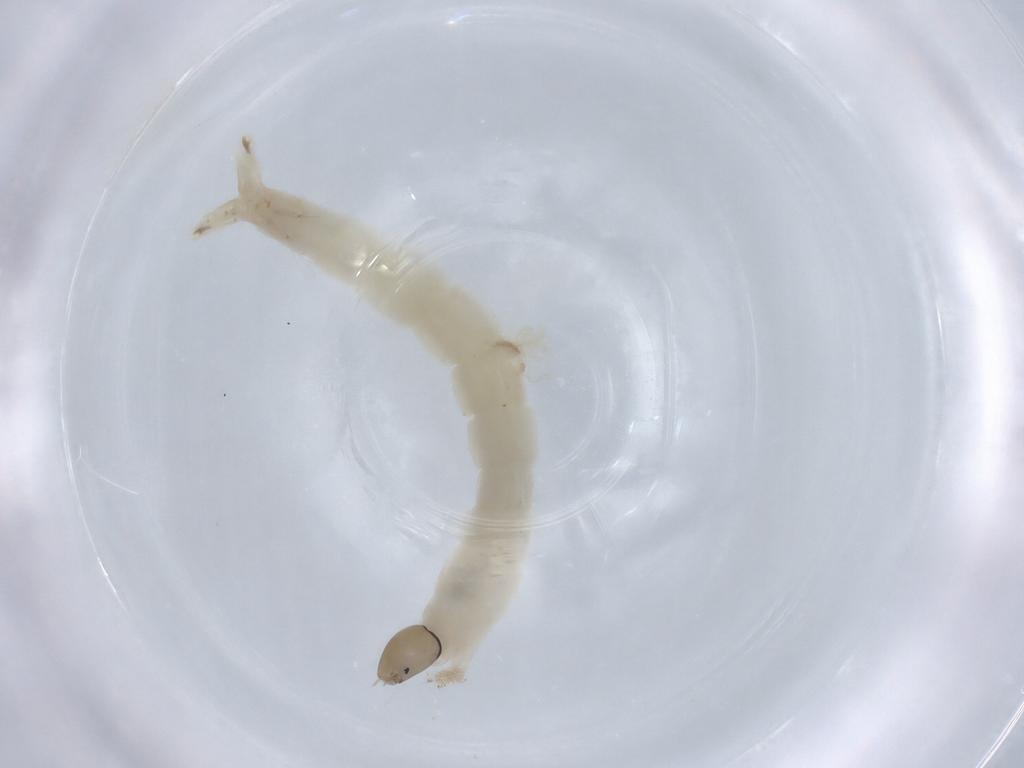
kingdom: Animalia
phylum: Arthropoda
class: Insecta
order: Diptera
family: Chironomidae
